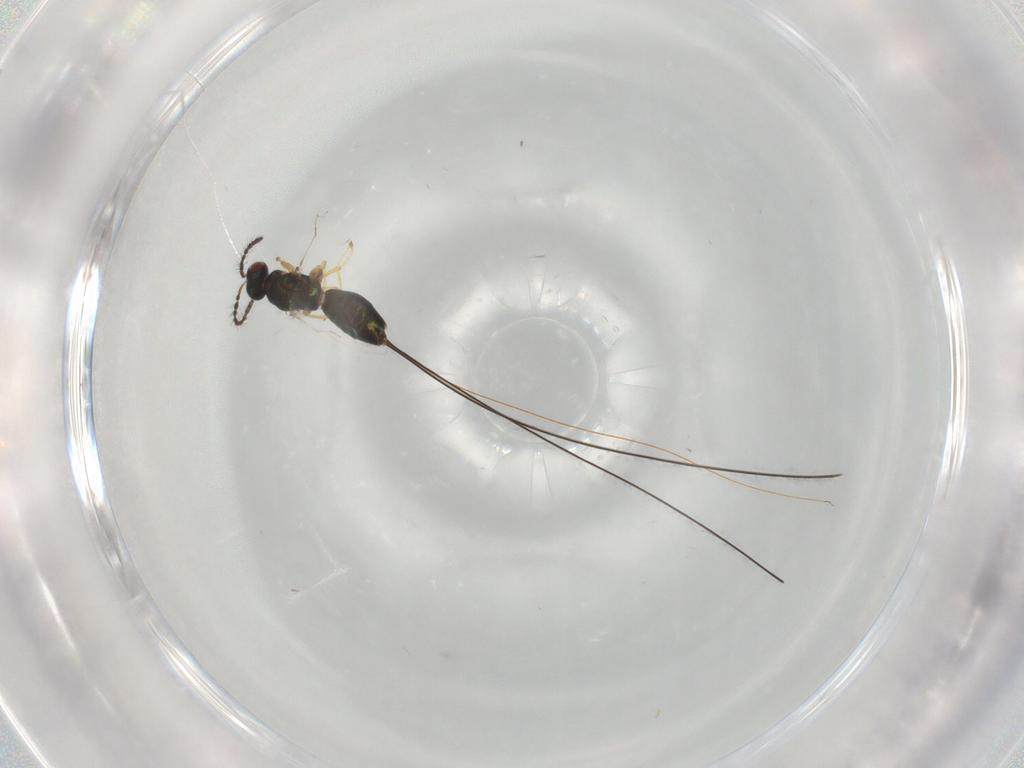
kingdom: Animalia
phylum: Arthropoda
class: Insecta
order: Hymenoptera
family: Pteromalidae
